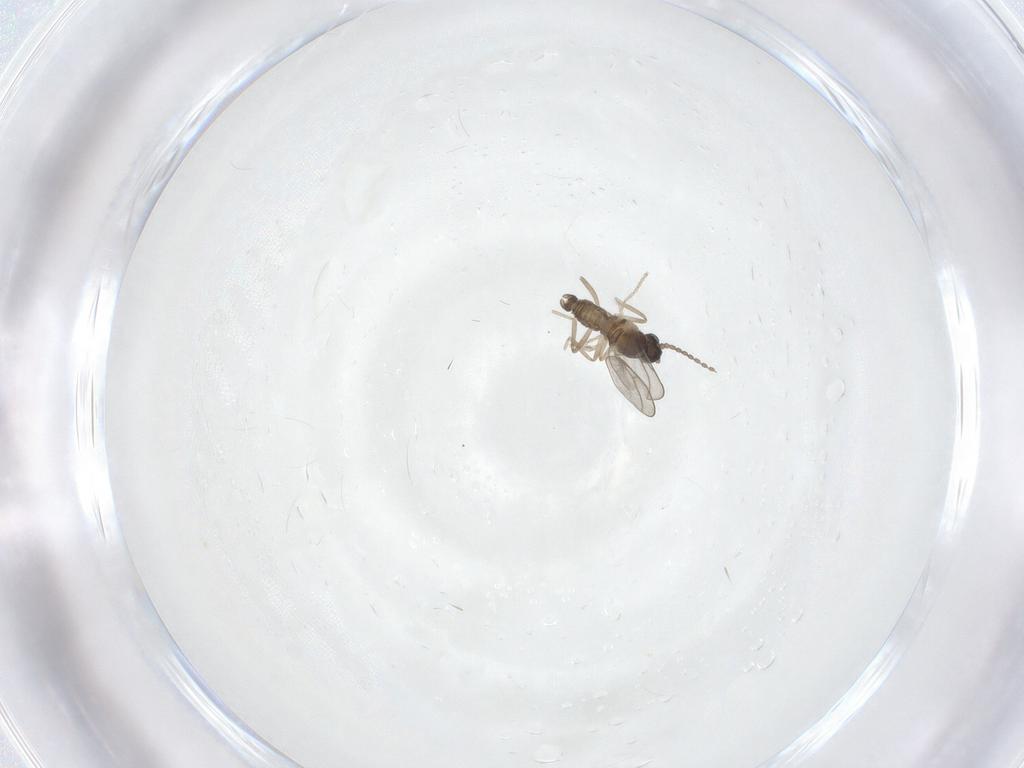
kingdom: Animalia
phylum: Arthropoda
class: Insecta
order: Diptera
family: Cecidomyiidae
